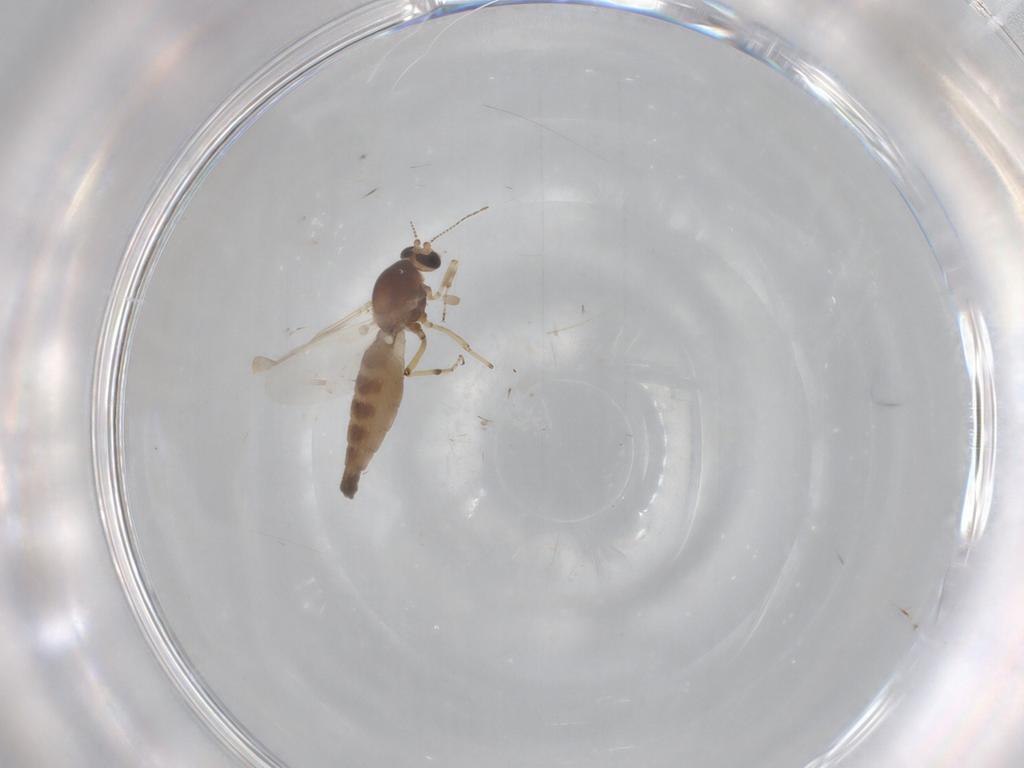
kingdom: Animalia
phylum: Arthropoda
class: Insecta
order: Diptera
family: Ceratopogonidae
